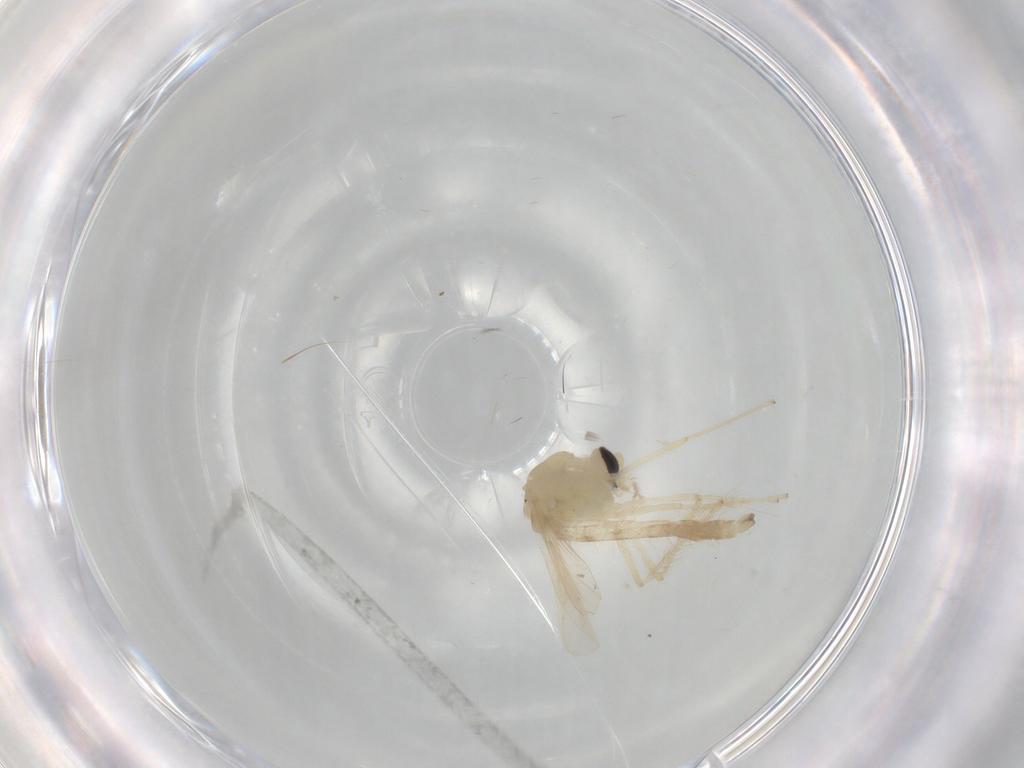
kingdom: Animalia
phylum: Arthropoda
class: Insecta
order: Diptera
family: Chironomidae
